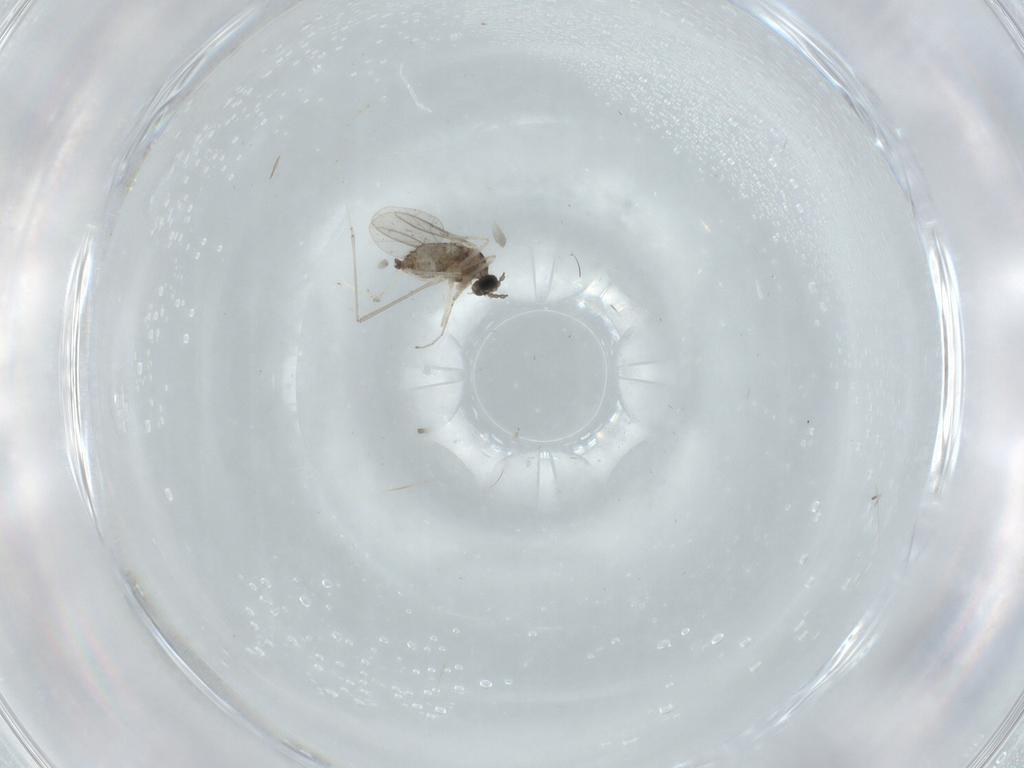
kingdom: Animalia
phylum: Arthropoda
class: Insecta
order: Diptera
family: Cecidomyiidae
